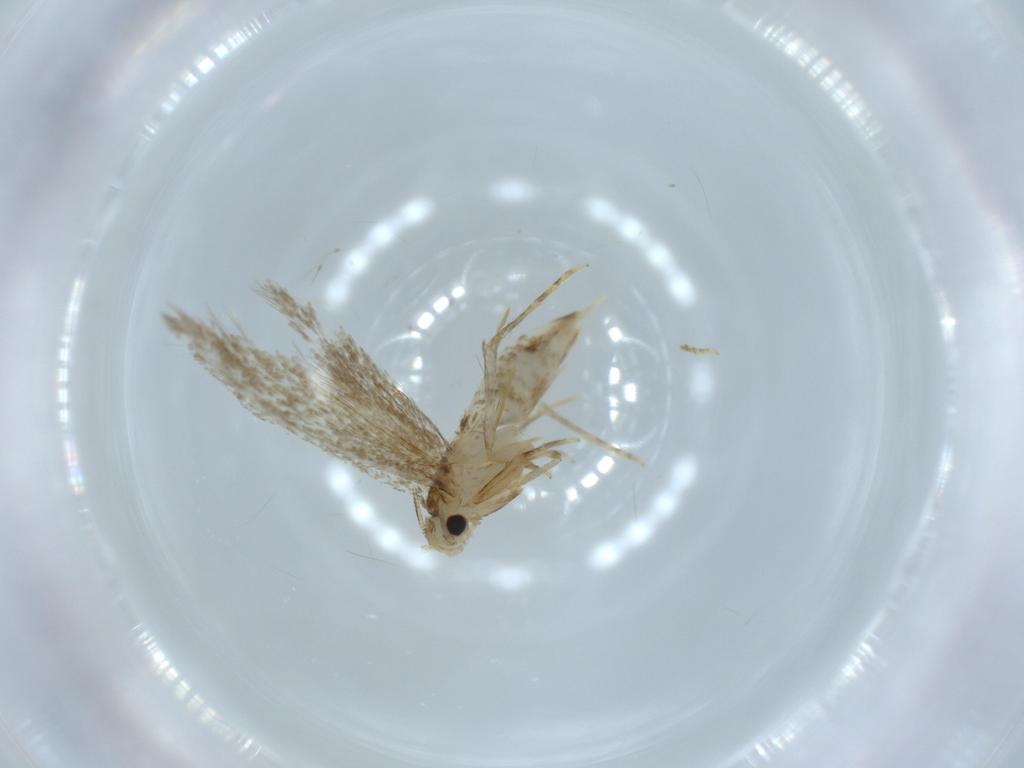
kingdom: Animalia
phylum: Arthropoda
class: Insecta
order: Lepidoptera
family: Tineidae
